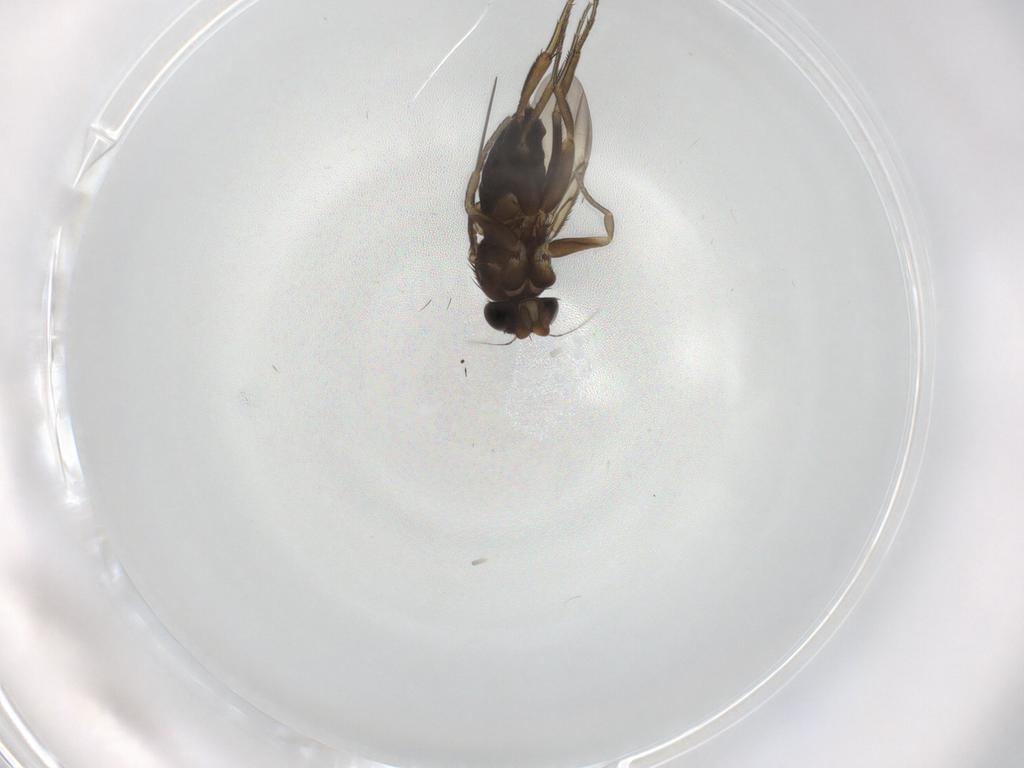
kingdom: Animalia
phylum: Arthropoda
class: Insecta
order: Diptera
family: Phoridae
